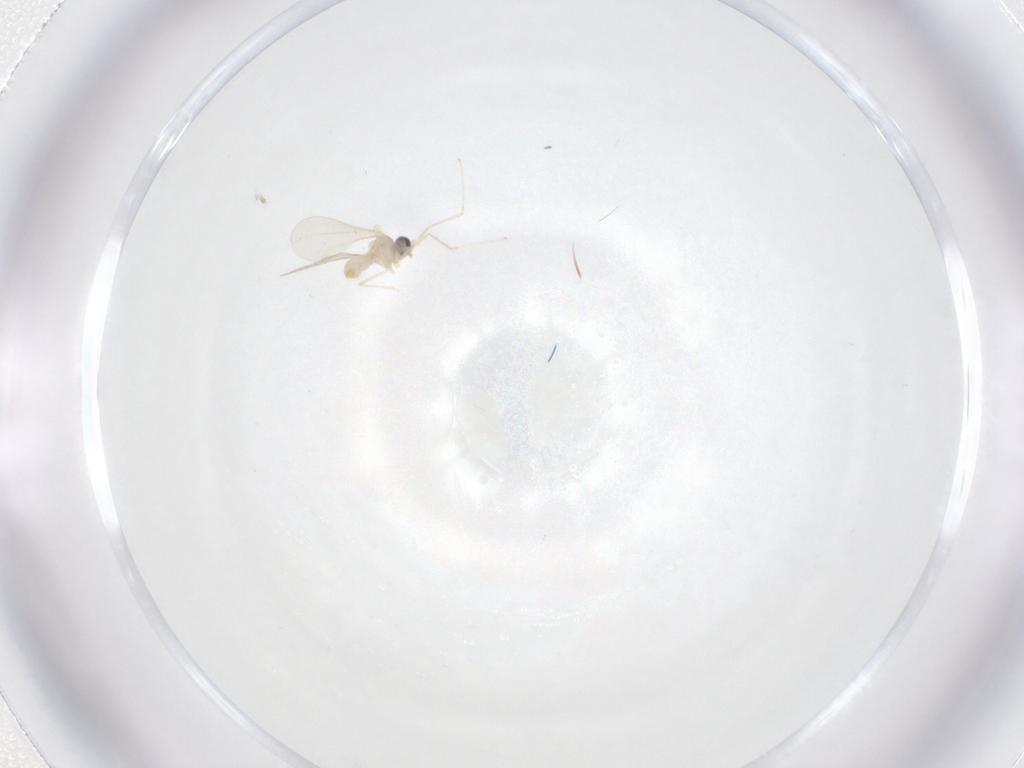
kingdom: Animalia
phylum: Arthropoda
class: Insecta
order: Diptera
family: Cecidomyiidae
